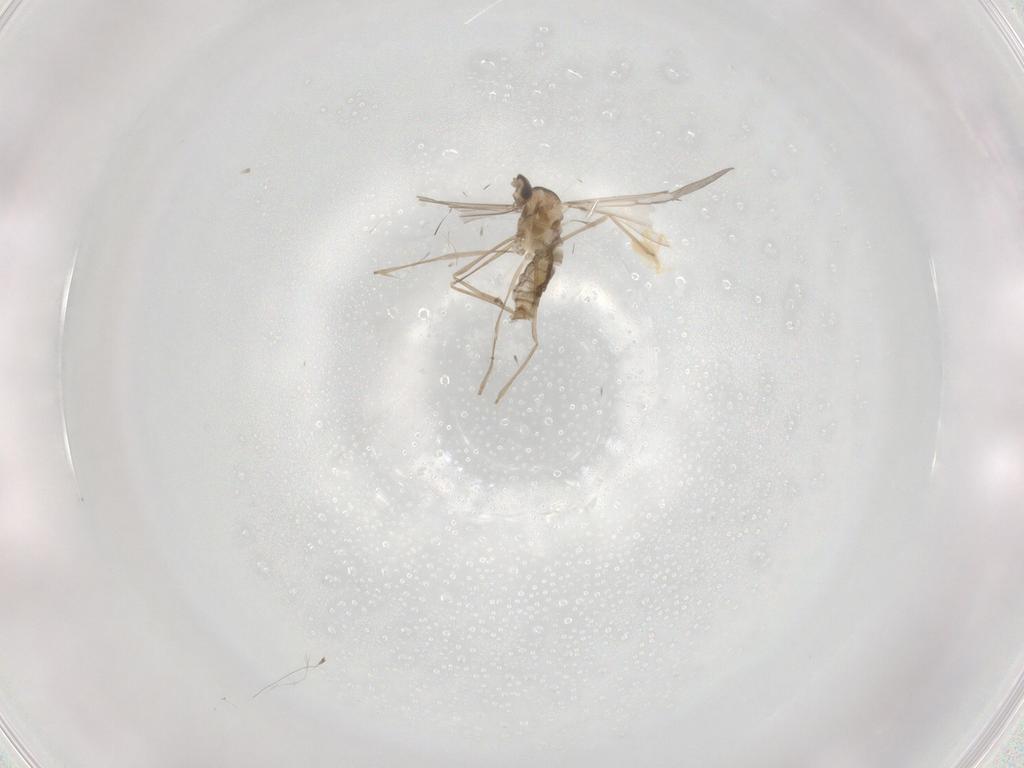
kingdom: Animalia
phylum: Arthropoda
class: Insecta
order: Diptera
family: Cecidomyiidae
